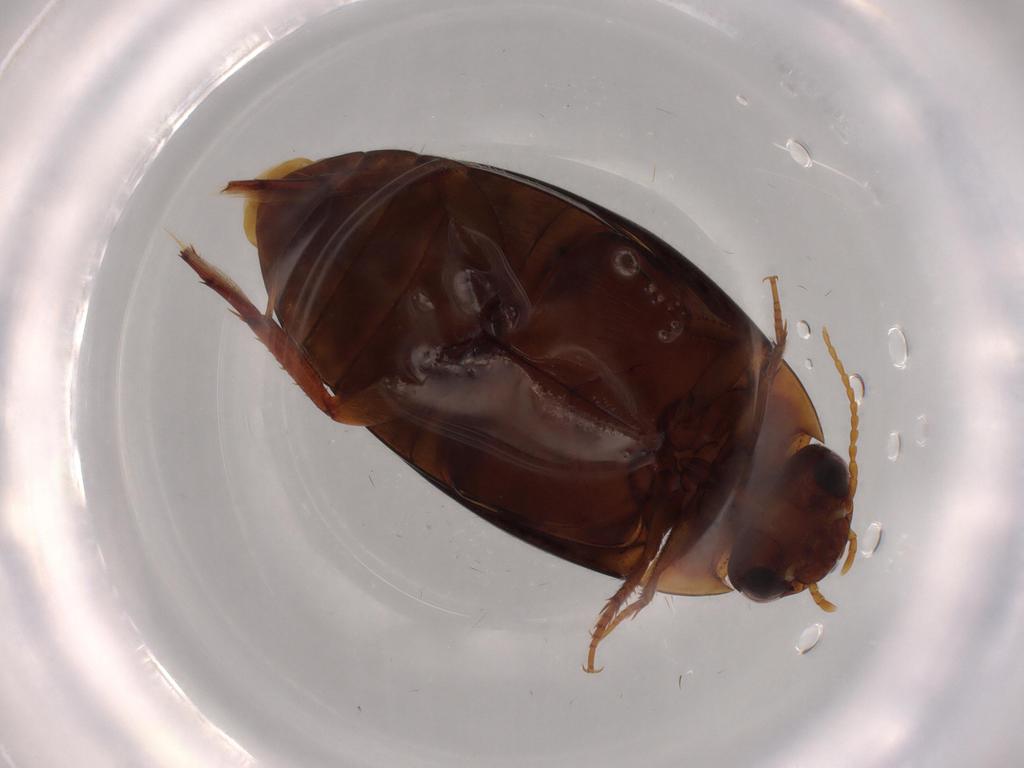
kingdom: Animalia
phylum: Arthropoda
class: Insecta
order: Coleoptera
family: Dytiscidae
